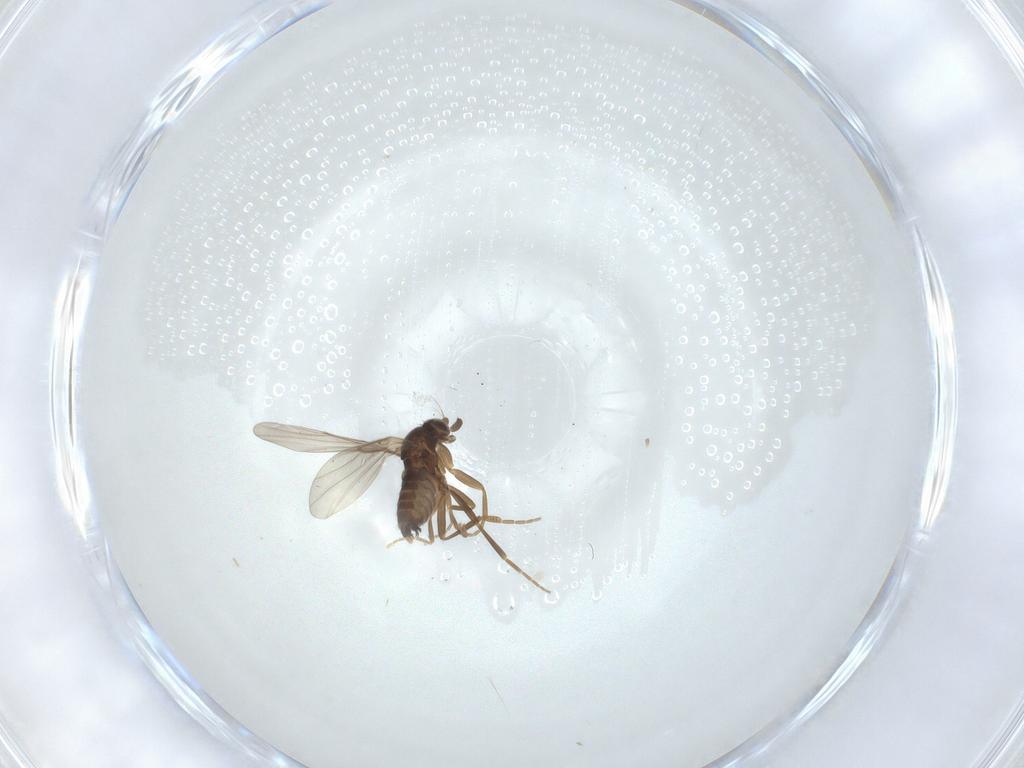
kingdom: Animalia
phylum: Arthropoda
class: Insecta
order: Diptera
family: Phoridae
